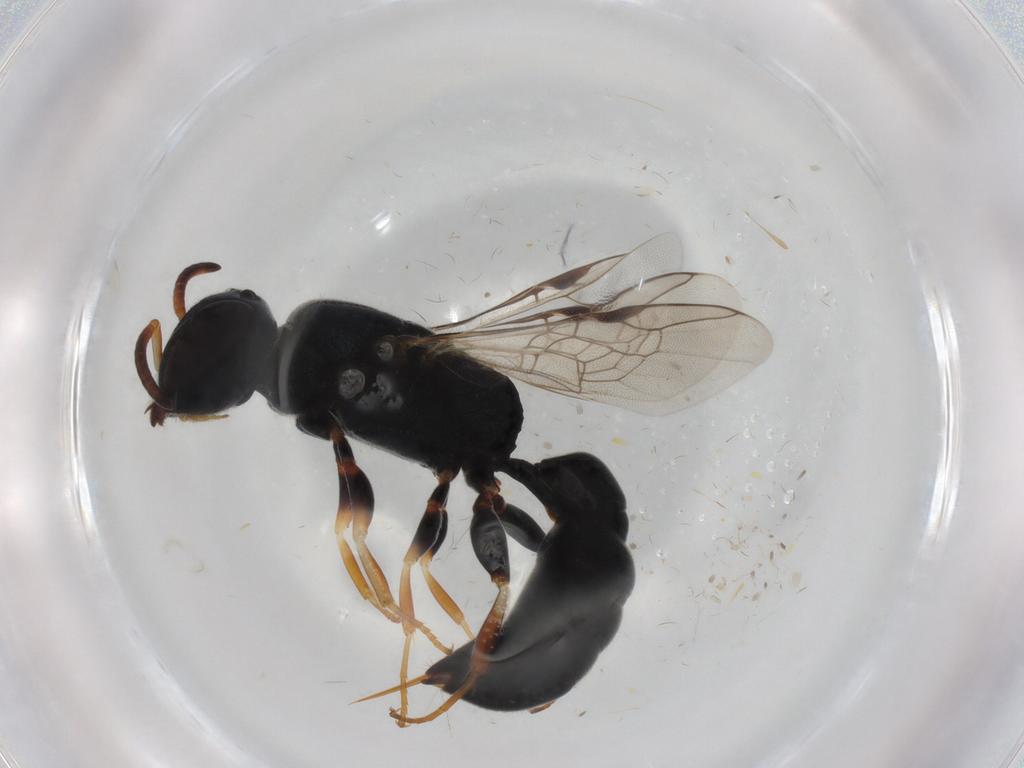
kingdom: Animalia
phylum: Arthropoda
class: Insecta
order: Hymenoptera
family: Pemphredonidae
